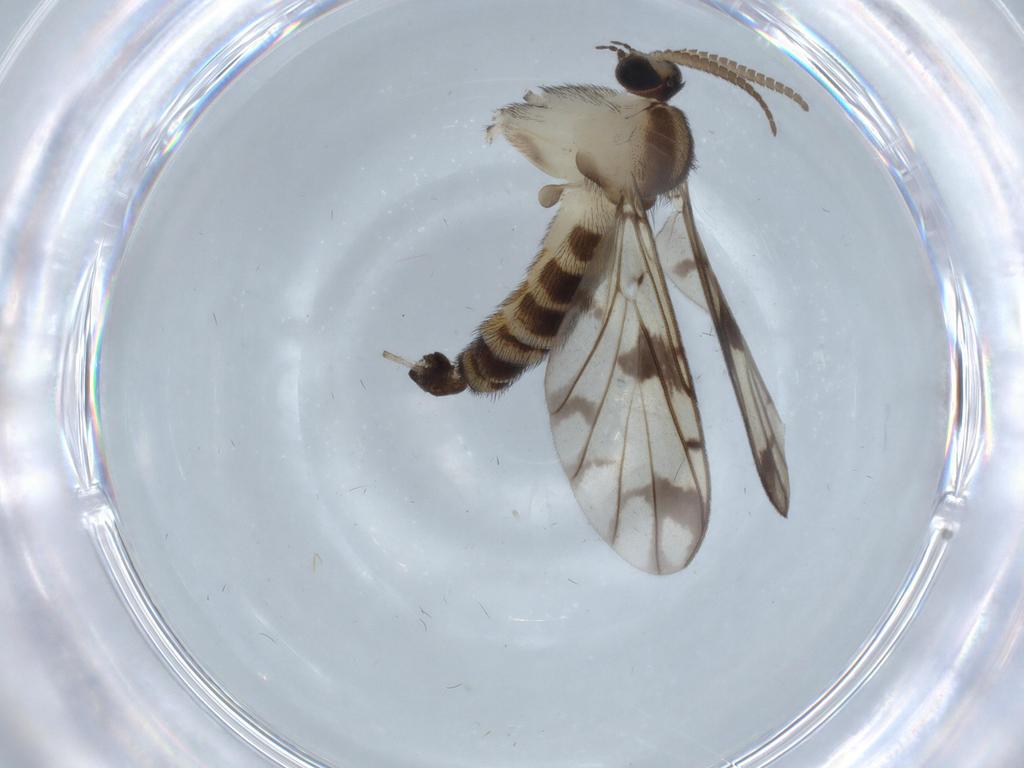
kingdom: Animalia
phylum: Arthropoda
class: Insecta
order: Diptera
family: Psychodidae
